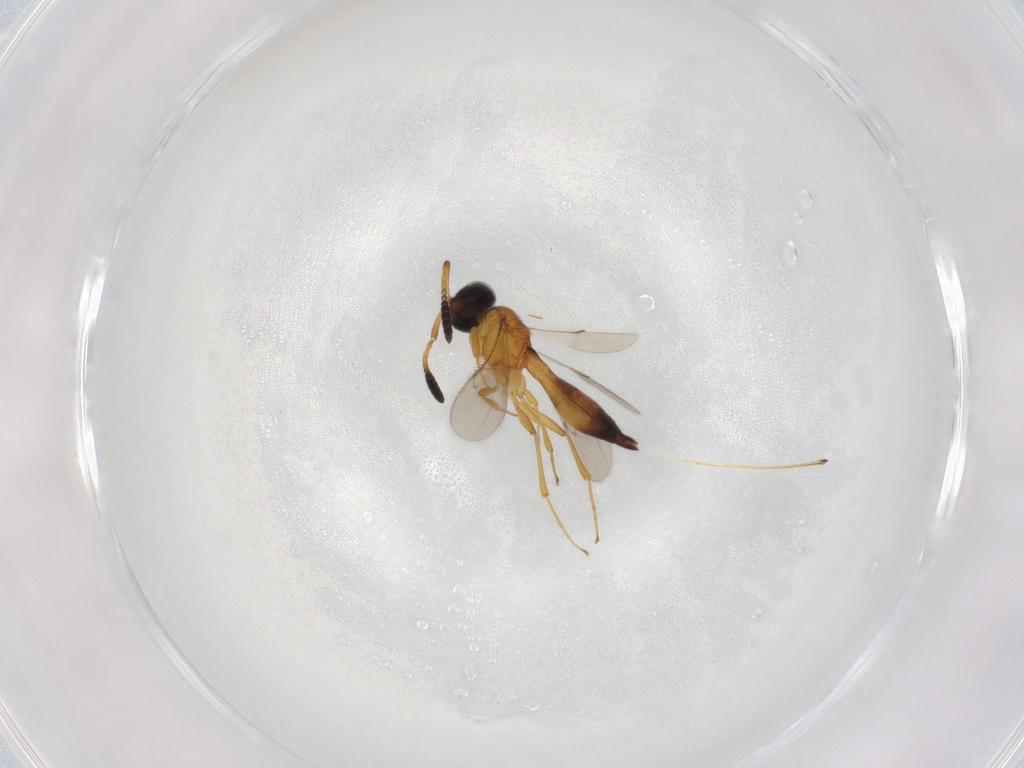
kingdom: Animalia
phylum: Arthropoda
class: Insecta
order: Hymenoptera
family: Scelionidae
